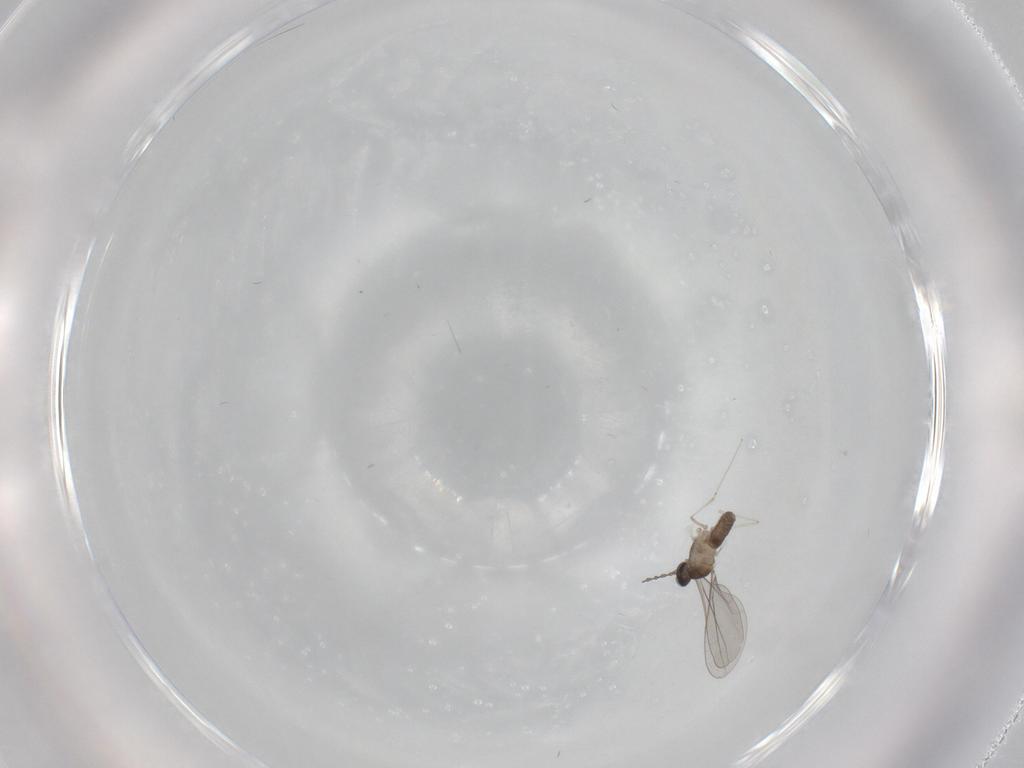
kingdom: Animalia
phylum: Arthropoda
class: Insecta
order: Diptera
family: Cecidomyiidae
